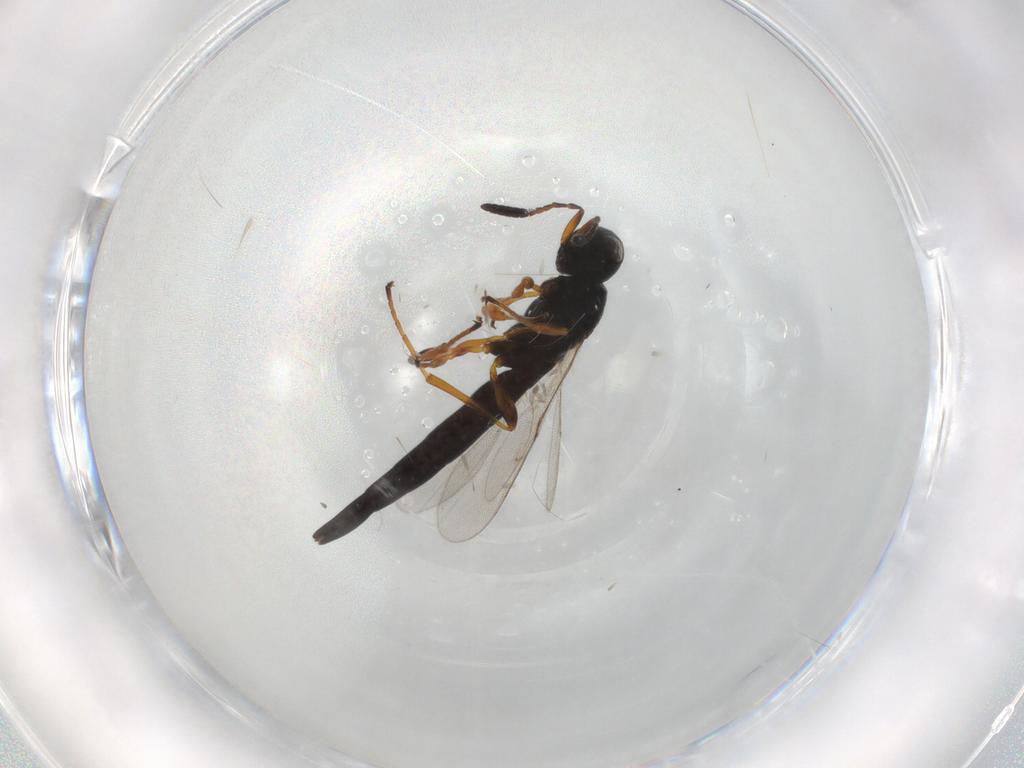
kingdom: Animalia
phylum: Arthropoda
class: Insecta
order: Hymenoptera
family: Scelionidae
